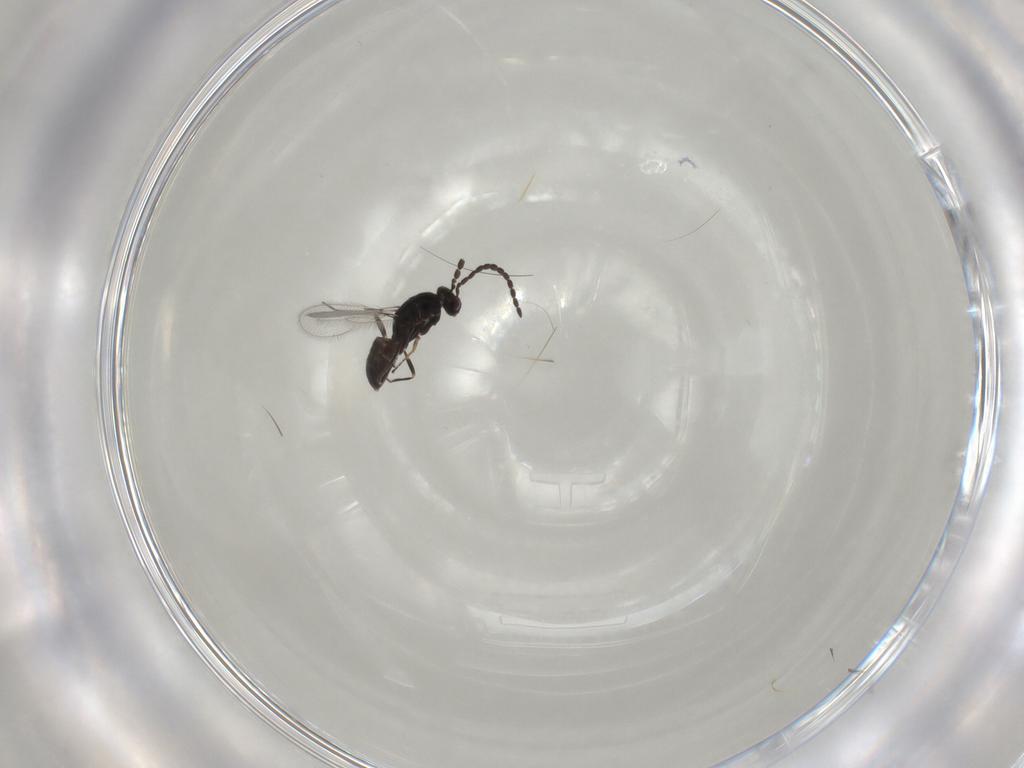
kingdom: Animalia
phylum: Arthropoda
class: Insecta
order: Hymenoptera
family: Mymaridae
